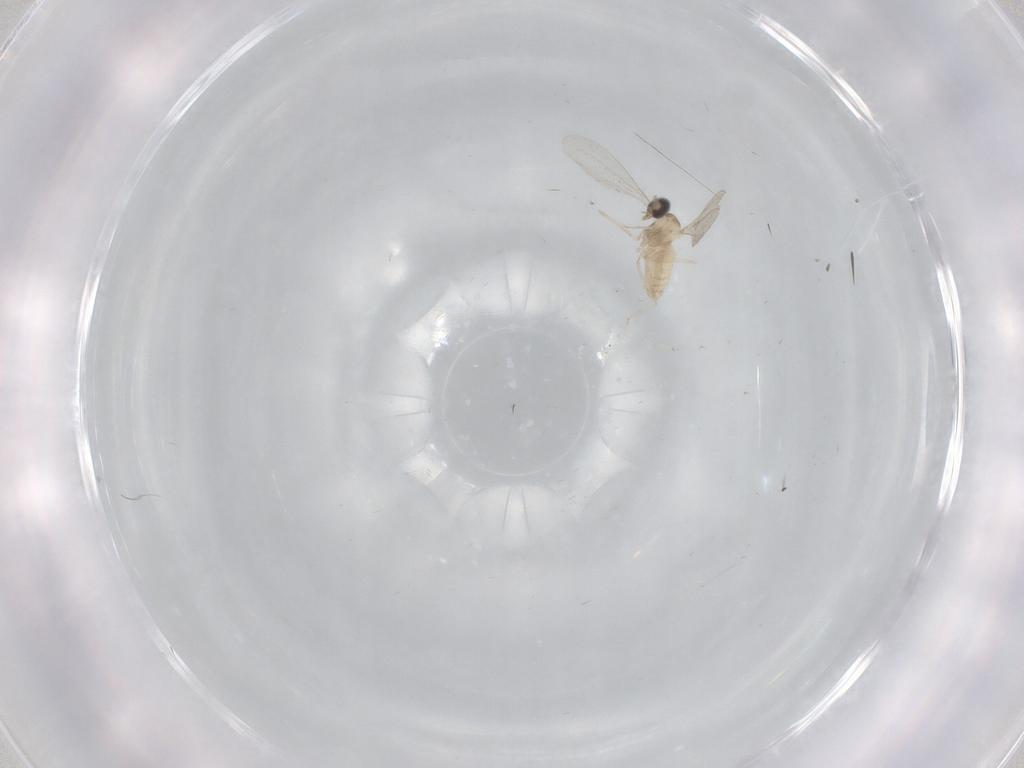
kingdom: Animalia
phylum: Arthropoda
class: Insecta
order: Diptera
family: Cecidomyiidae
